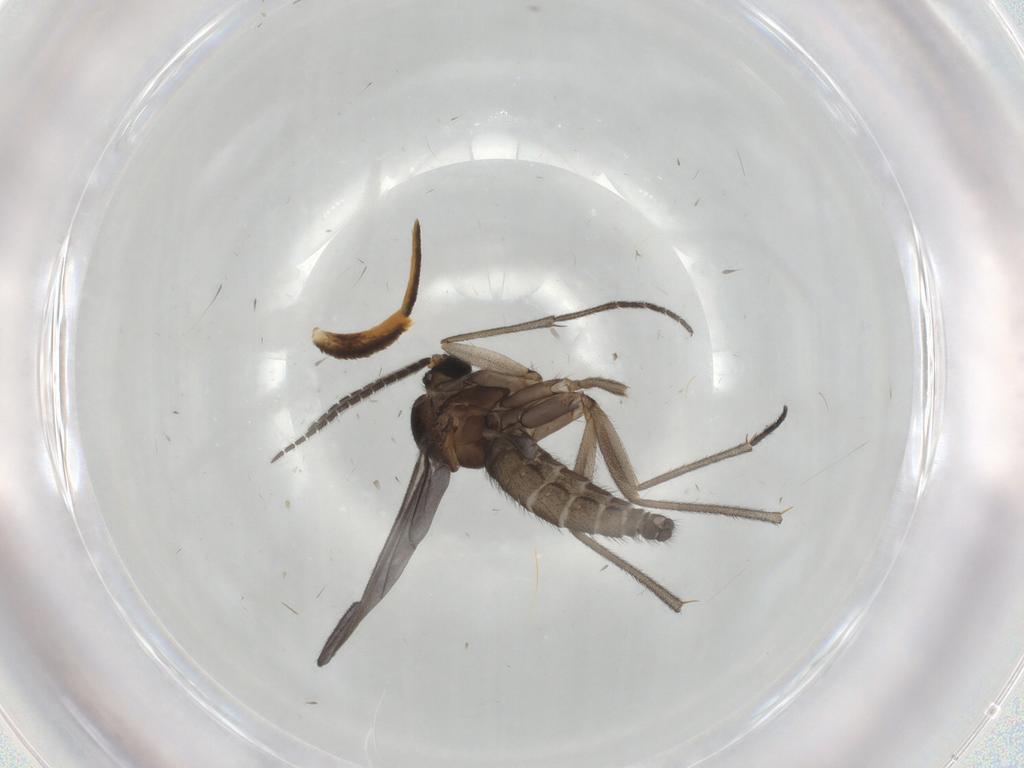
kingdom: Animalia
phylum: Arthropoda
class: Insecta
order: Diptera
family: Sciaridae
